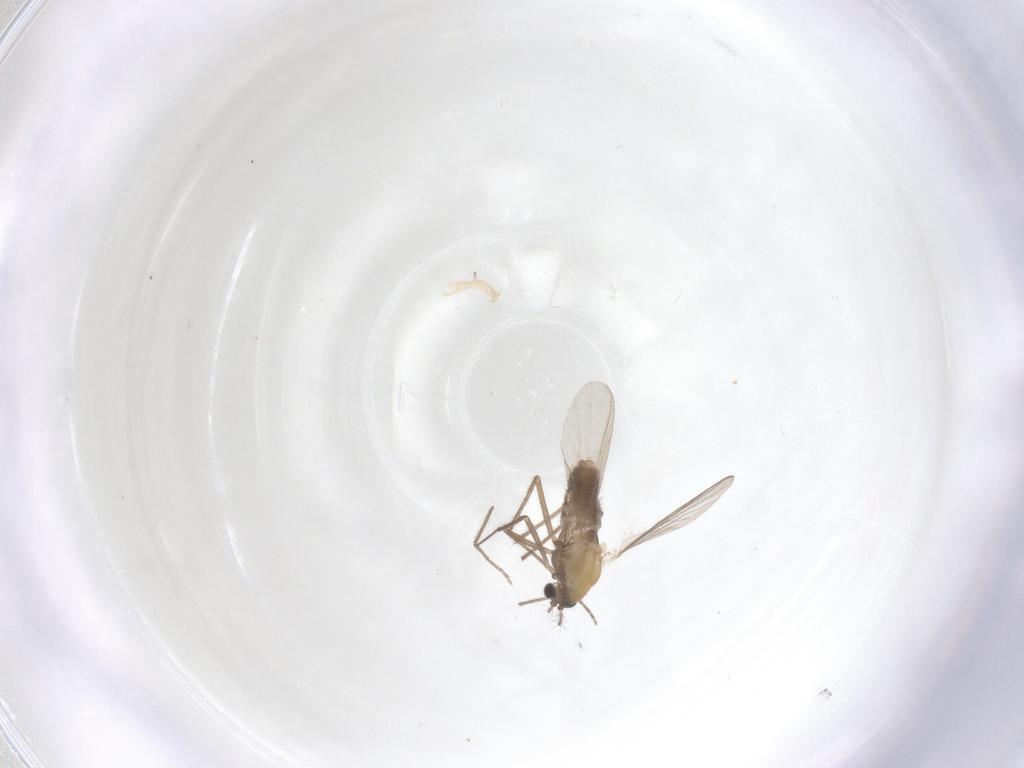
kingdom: Animalia
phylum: Arthropoda
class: Insecta
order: Diptera
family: Chironomidae
